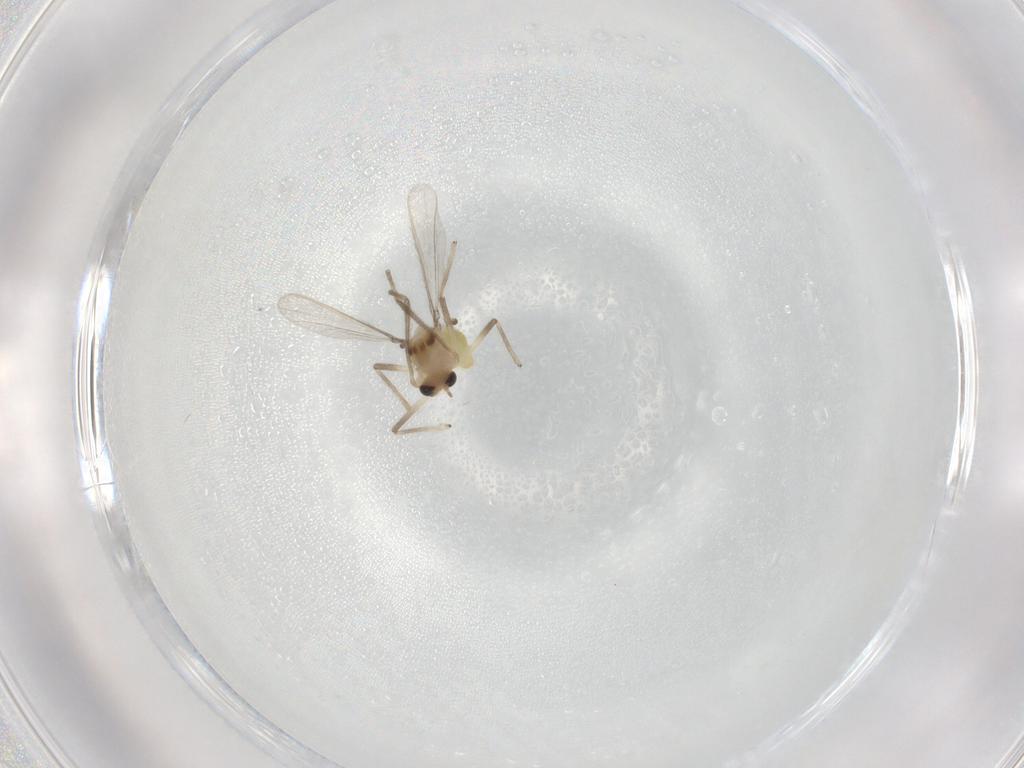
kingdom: Animalia
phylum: Arthropoda
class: Insecta
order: Diptera
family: Chironomidae
